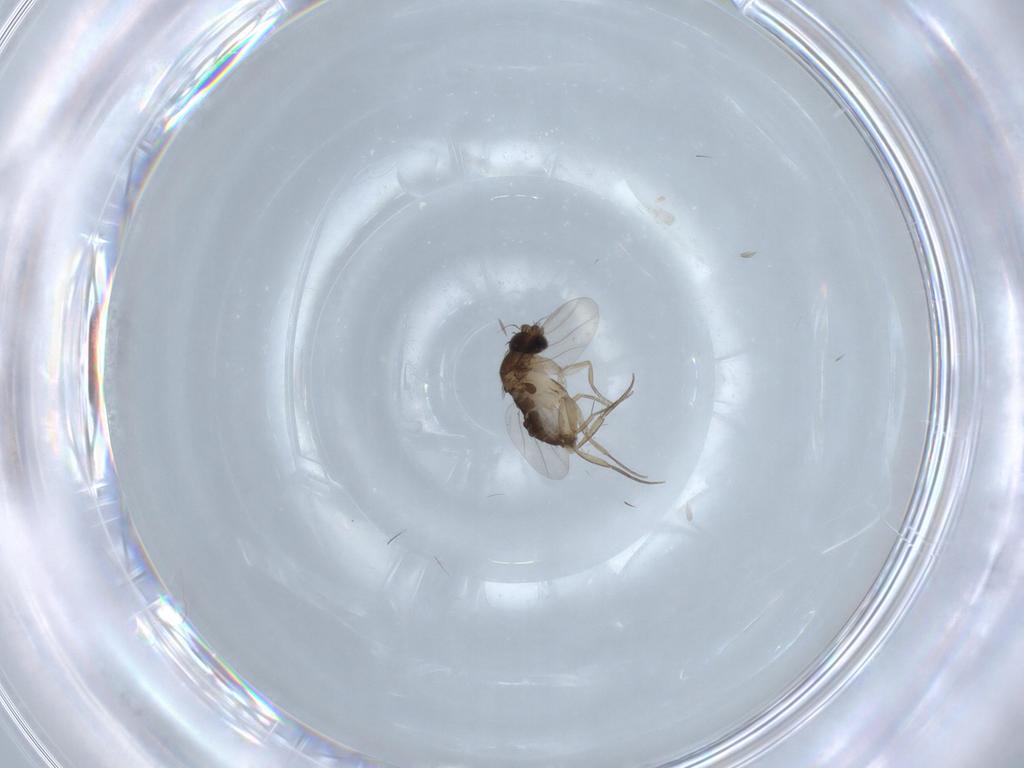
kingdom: Animalia
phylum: Arthropoda
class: Insecta
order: Diptera
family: Phoridae
